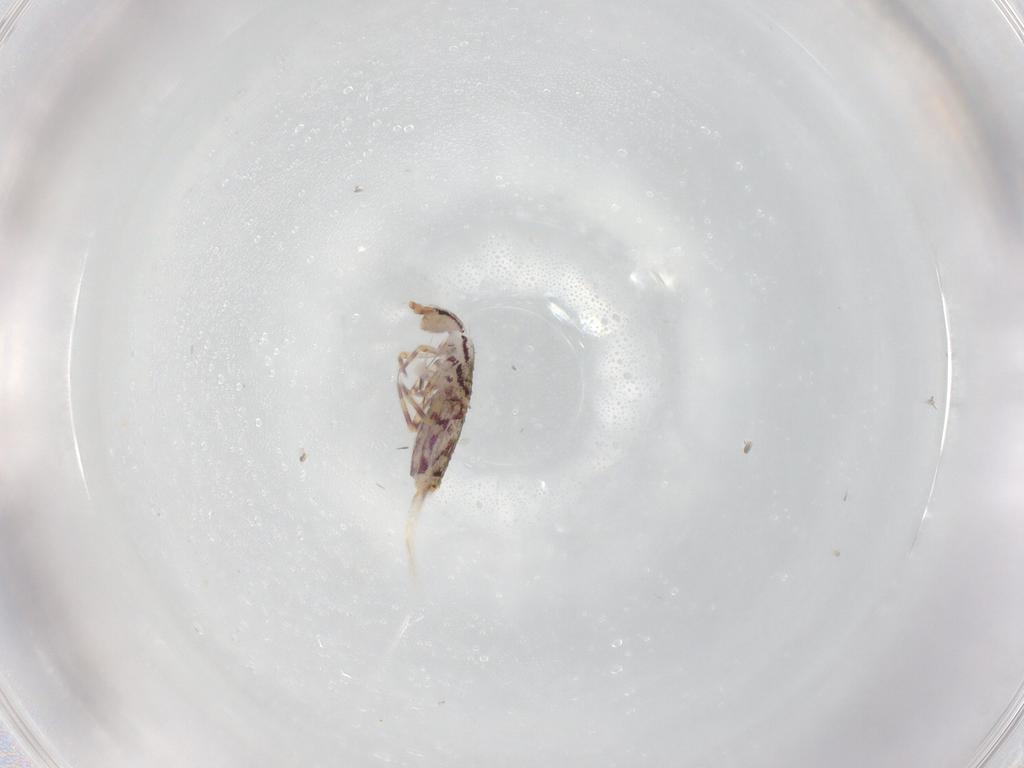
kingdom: Animalia
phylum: Arthropoda
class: Collembola
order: Entomobryomorpha
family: Entomobryidae
